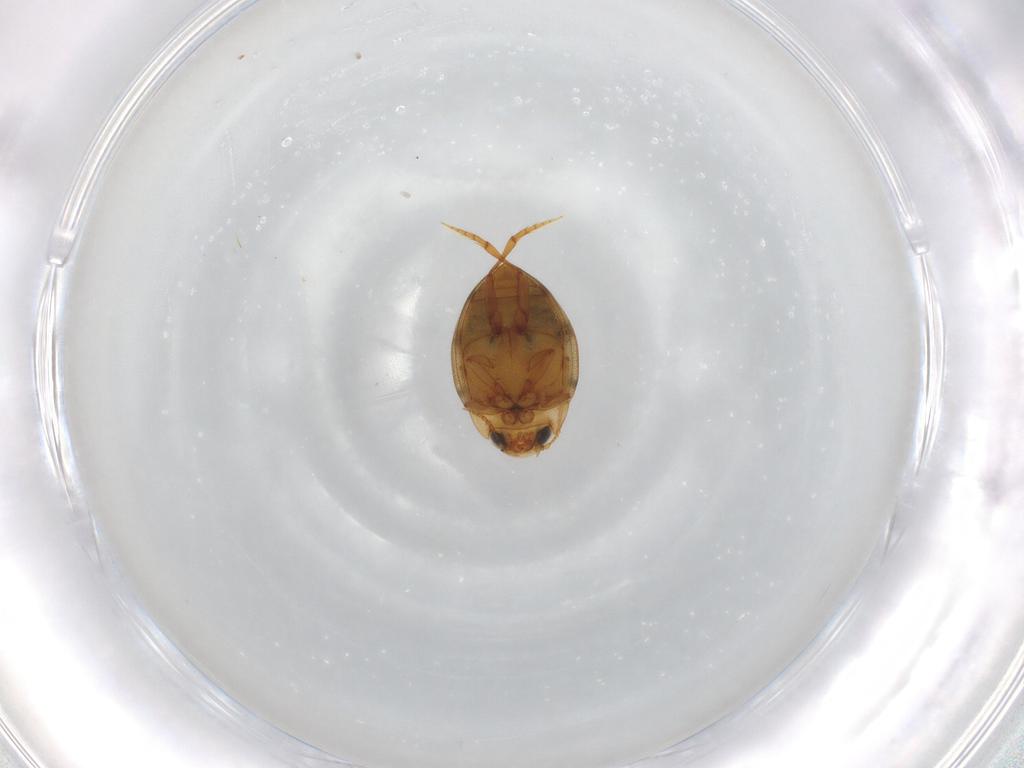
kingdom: Animalia
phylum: Arthropoda
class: Insecta
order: Coleoptera
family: Dytiscidae
